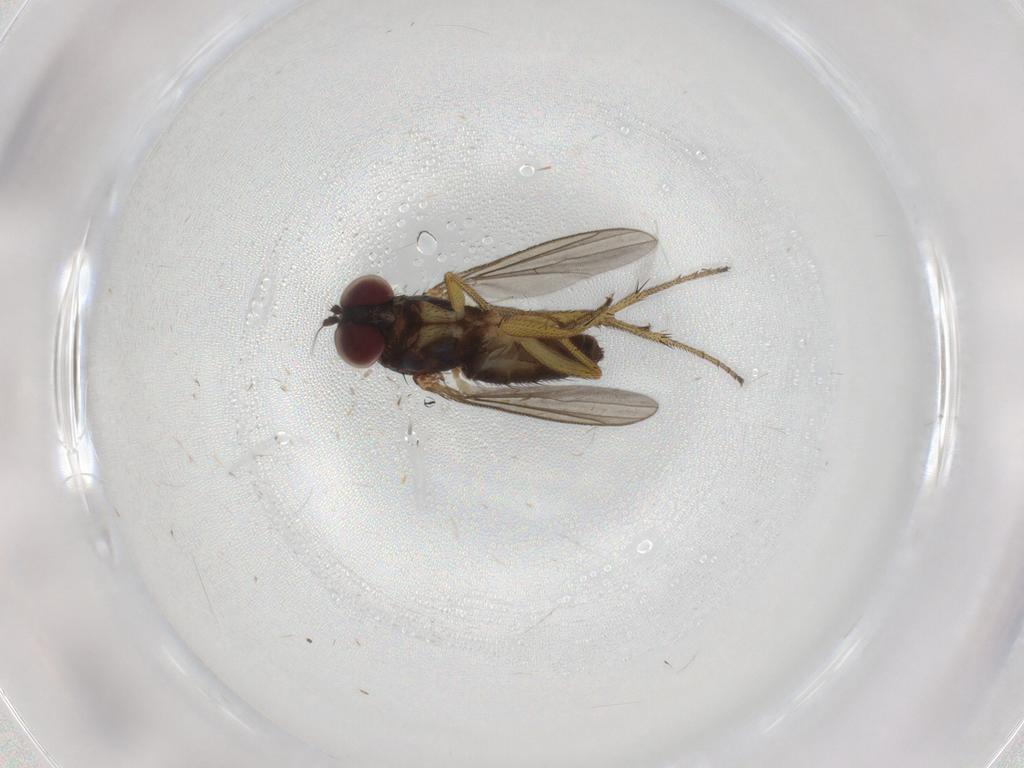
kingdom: Animalia
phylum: Arthropoda
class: Insecta
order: Diptera
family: Dolichopodidae
